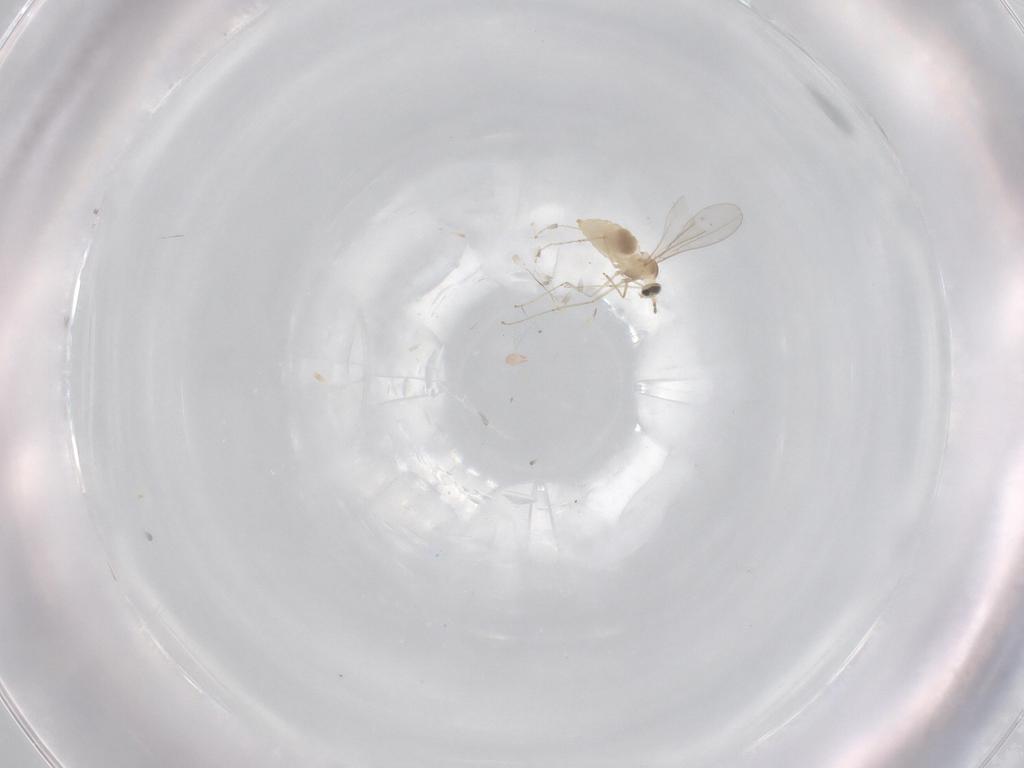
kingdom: Animalia
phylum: Arthropoda
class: Insecta
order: Diptera
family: Cecidomyiidae
